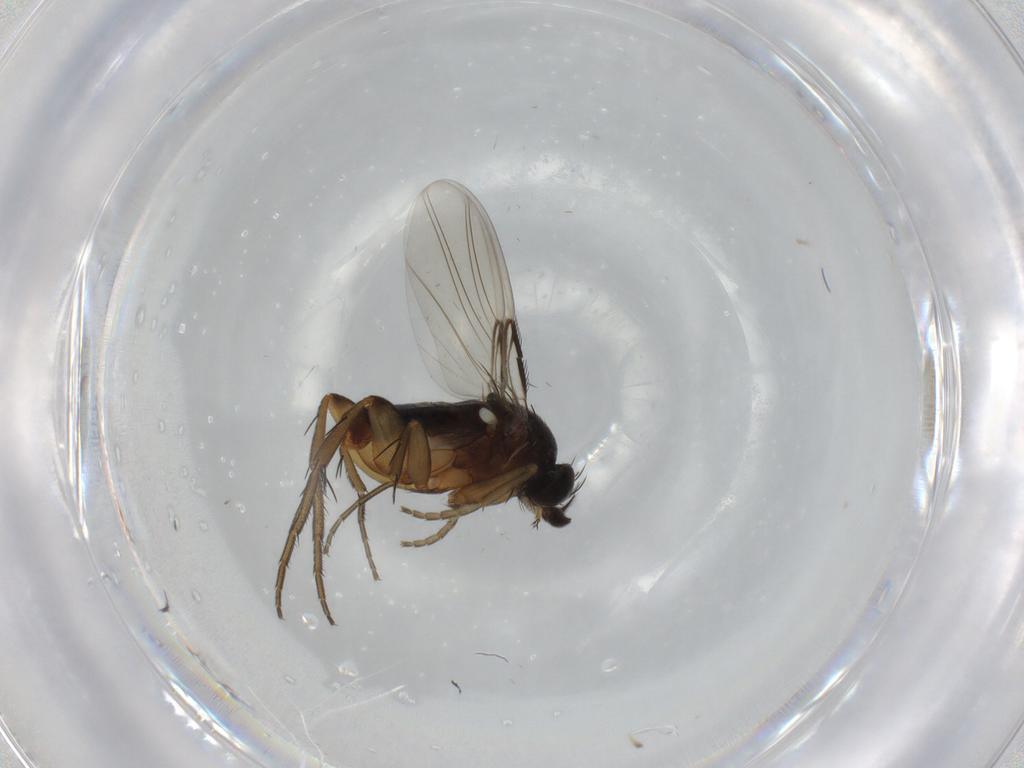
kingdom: Animalia
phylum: Arthropoda
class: Insecta
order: Diptera
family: Phoridae
